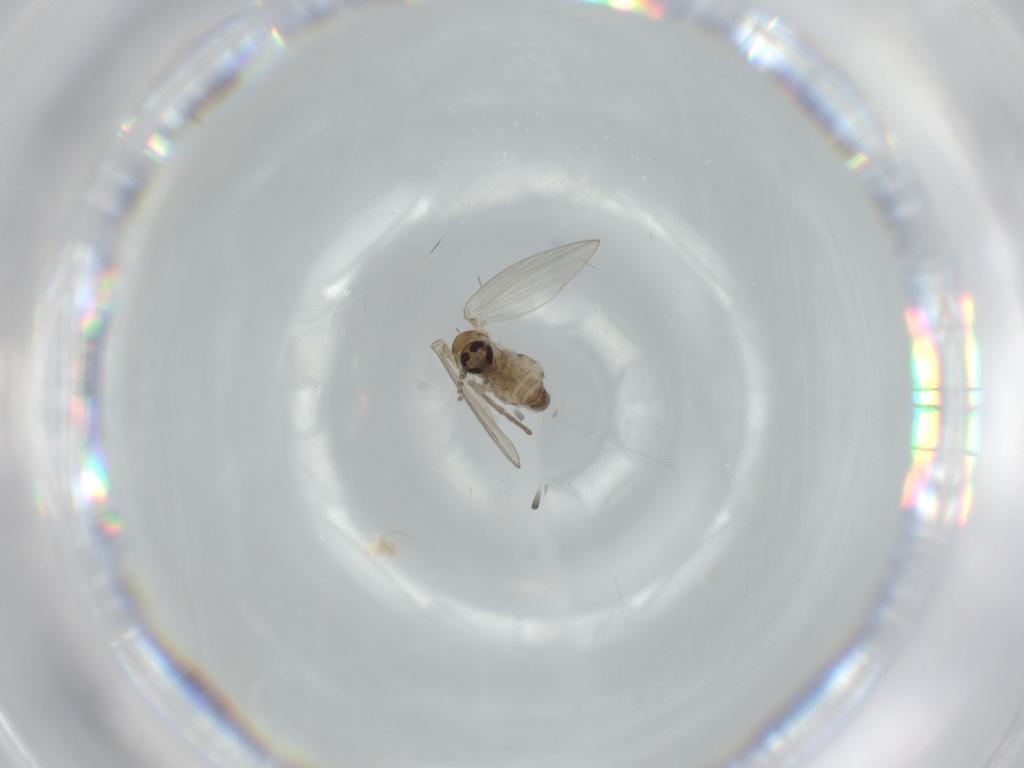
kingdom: Animalia
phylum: Arthropoda
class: Insecta
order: Diptera
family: Psychodidae
